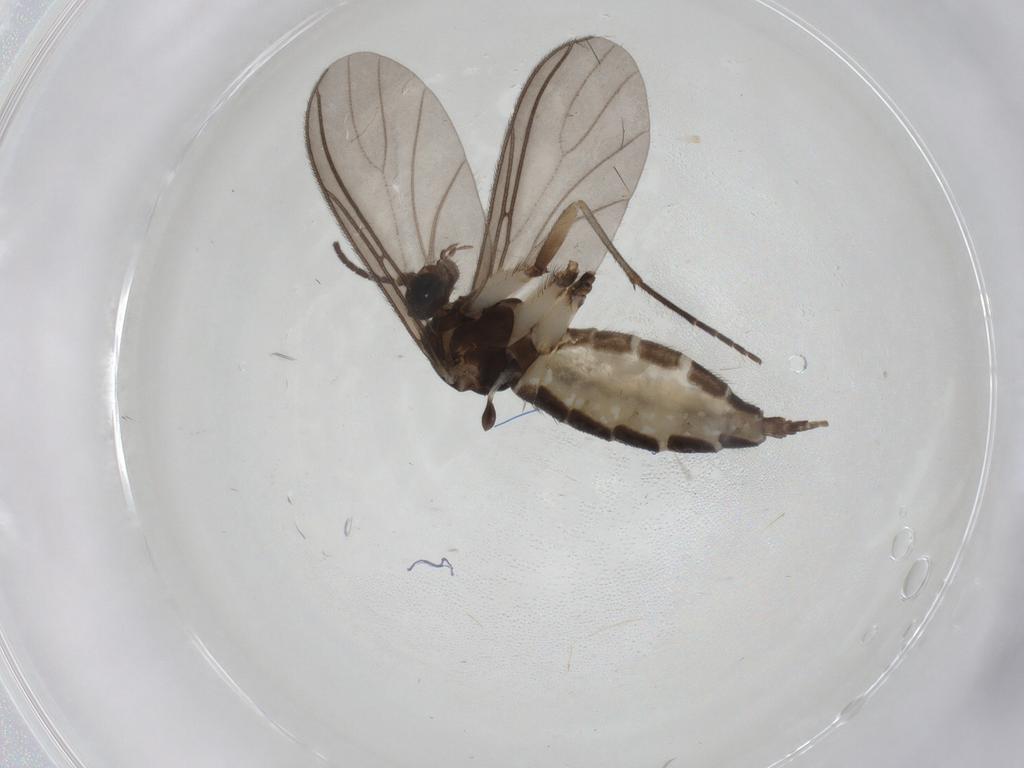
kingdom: Animalia
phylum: Arthropoda
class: Insecta
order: Diptera
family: Sciaridae
